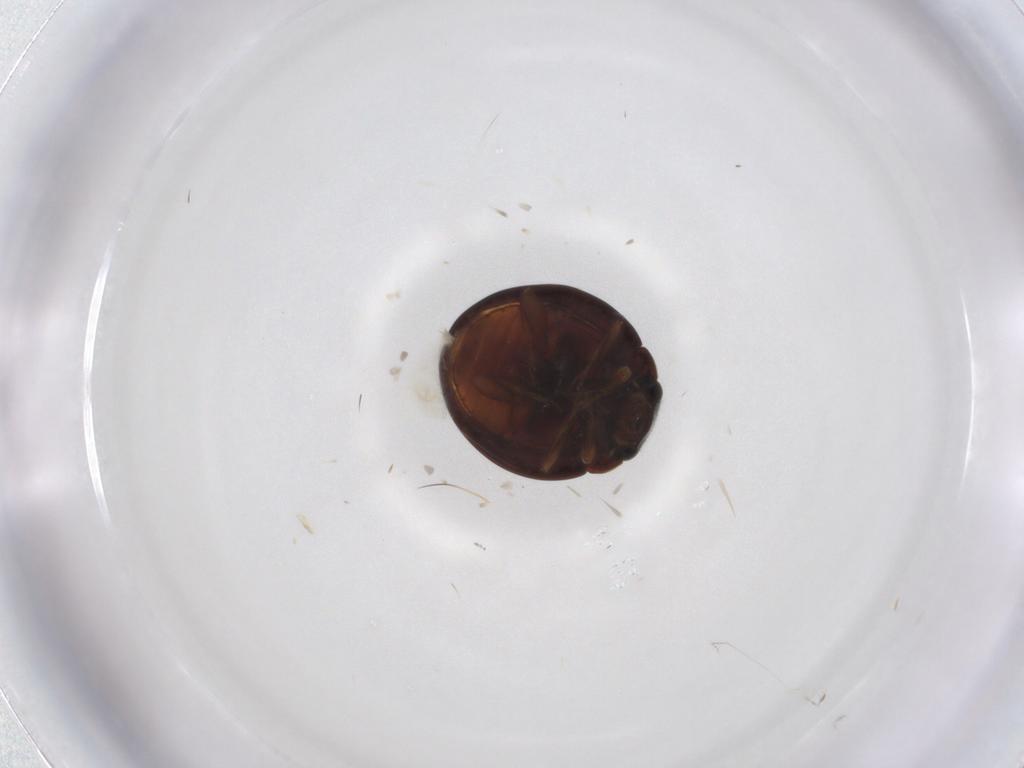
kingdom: Animalia
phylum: Arthropoda
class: Insecta
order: Coleoptera
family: Coccinellidae
